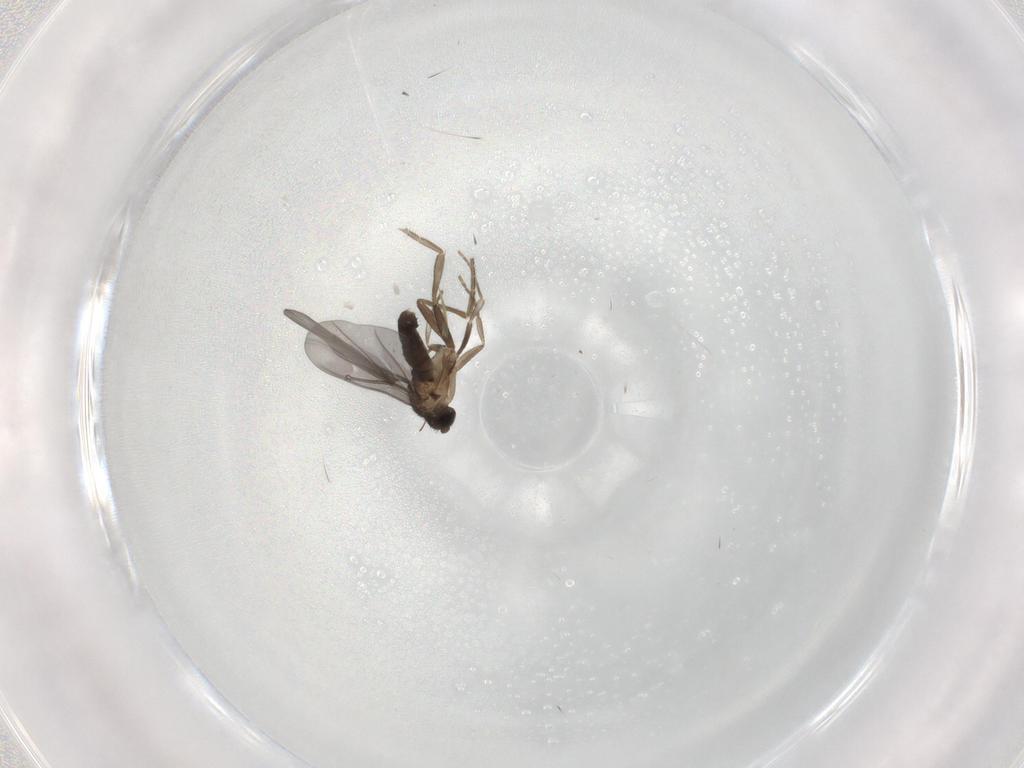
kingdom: Animalia
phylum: Arthropoda
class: Insecta
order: Diptera
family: Phoridae
